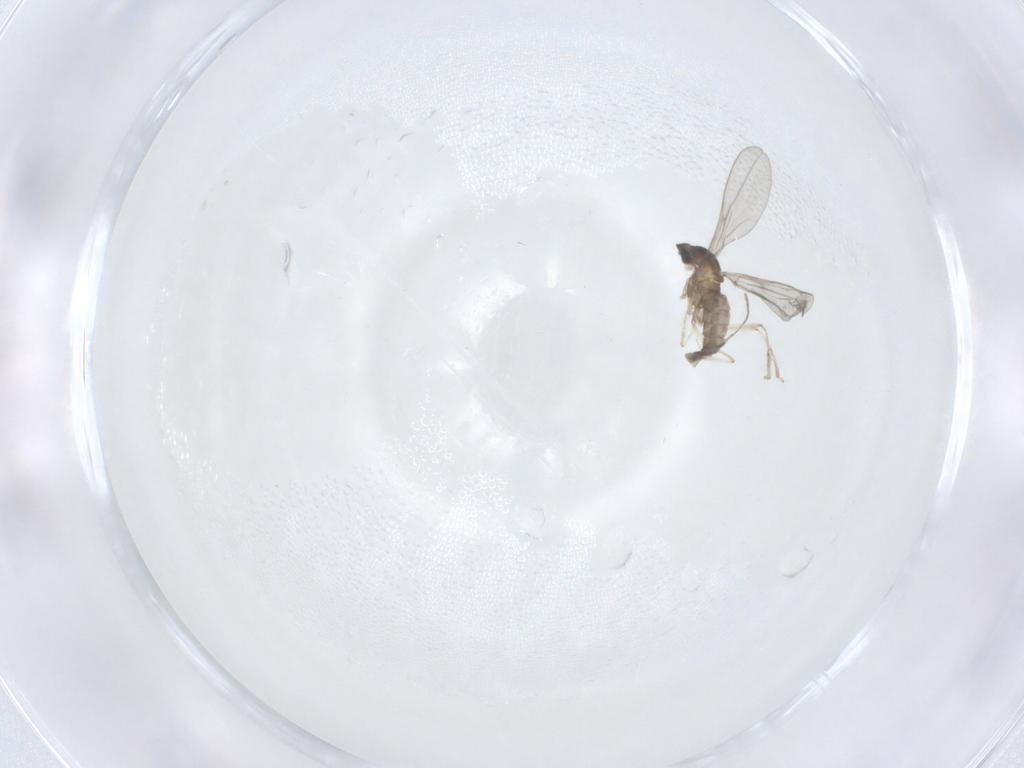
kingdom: Animalia
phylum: Arthropoda
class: Insecta
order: Diptera
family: Cecidomyiidae
